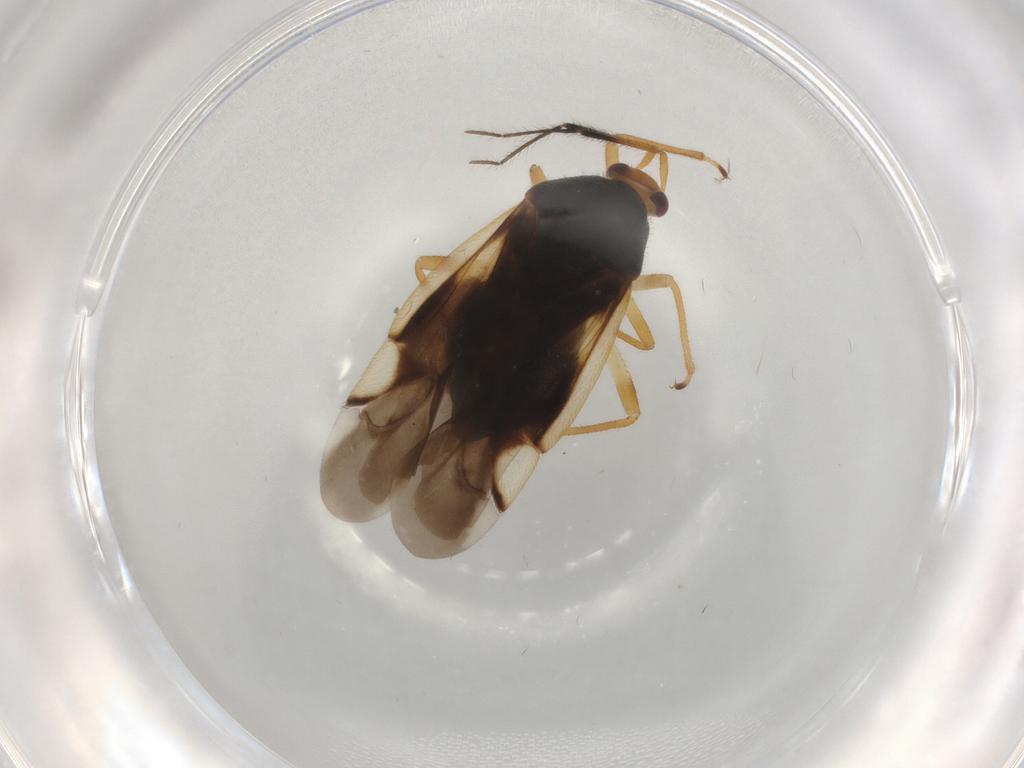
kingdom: Animalia
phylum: Arthropoda
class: Insecta
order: Hemiptera
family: Miridae
